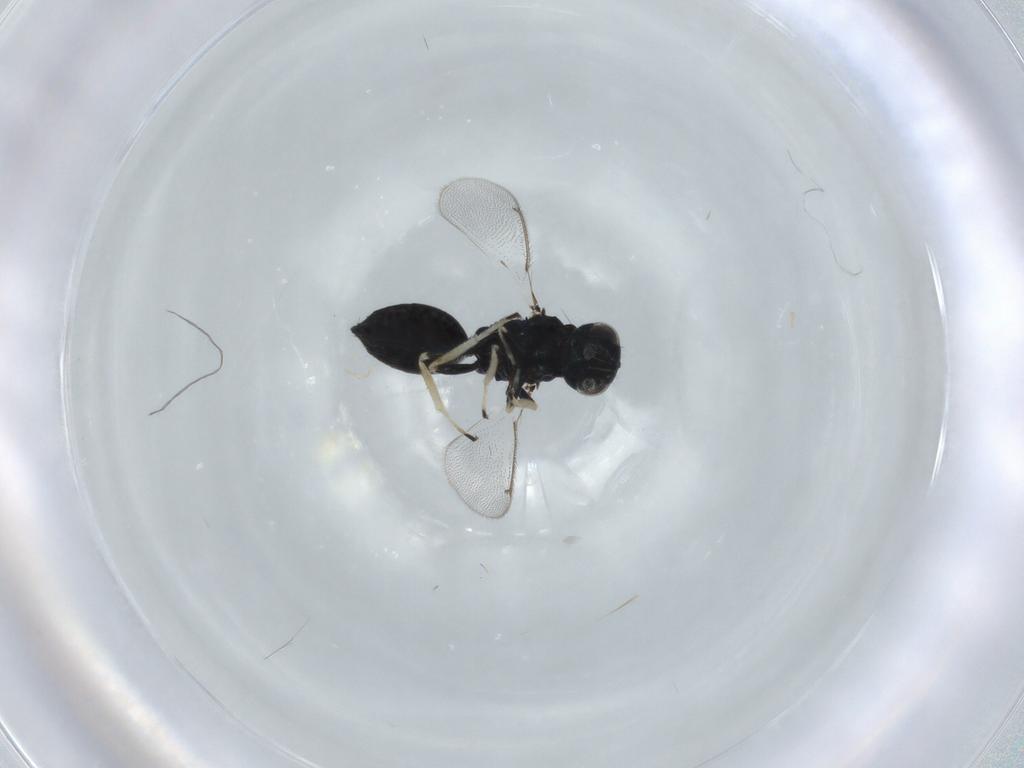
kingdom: Animalia
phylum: Arthropoda
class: Insecta
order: Hymenoptera
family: Eulophidae
